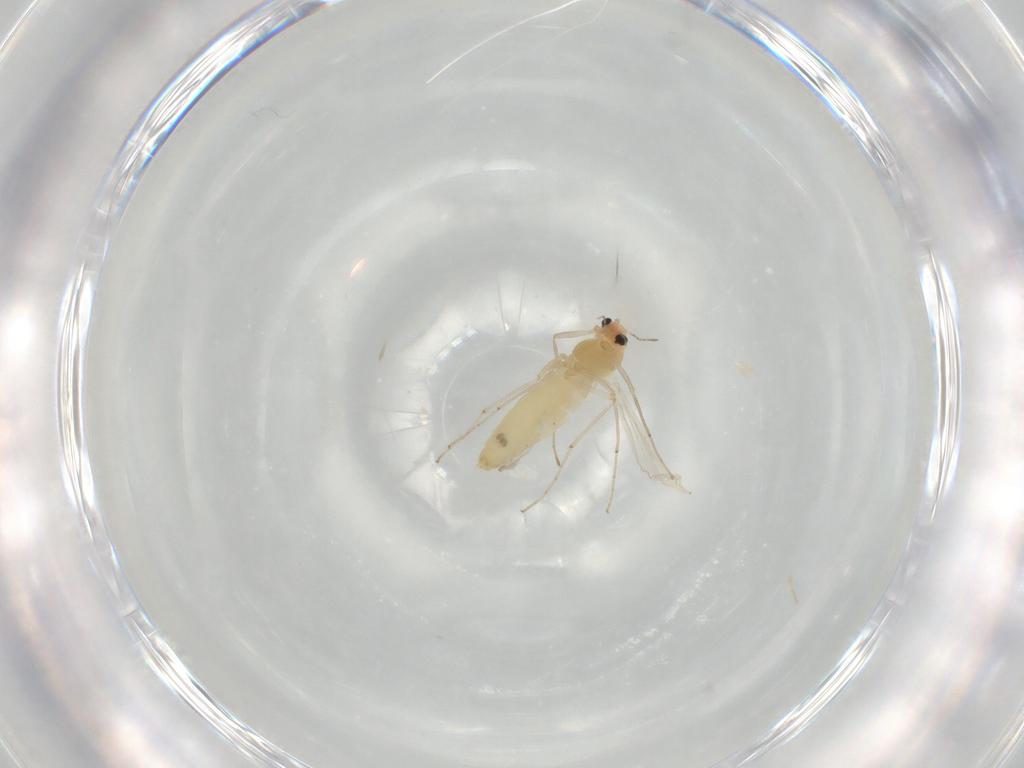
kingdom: Animalia
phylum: Arthropoda
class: Insecta
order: Diptera
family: Chironomidae
